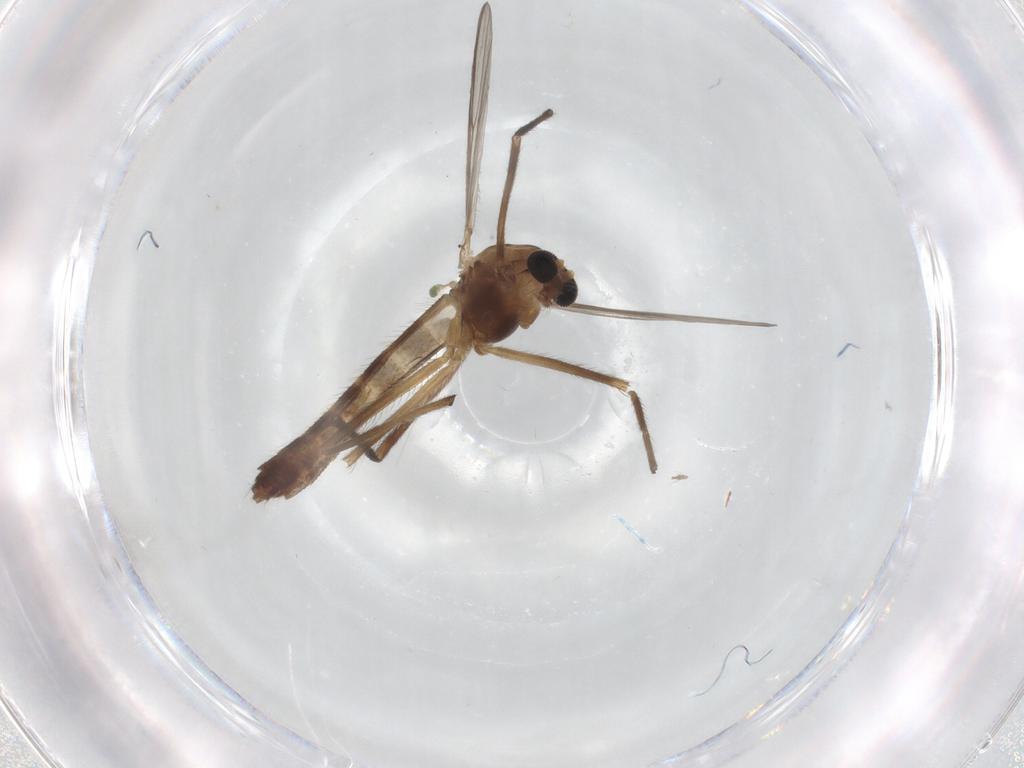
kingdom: Animalia
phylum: Arthropoda
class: Insecta
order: Diptera
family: Chironomidae
